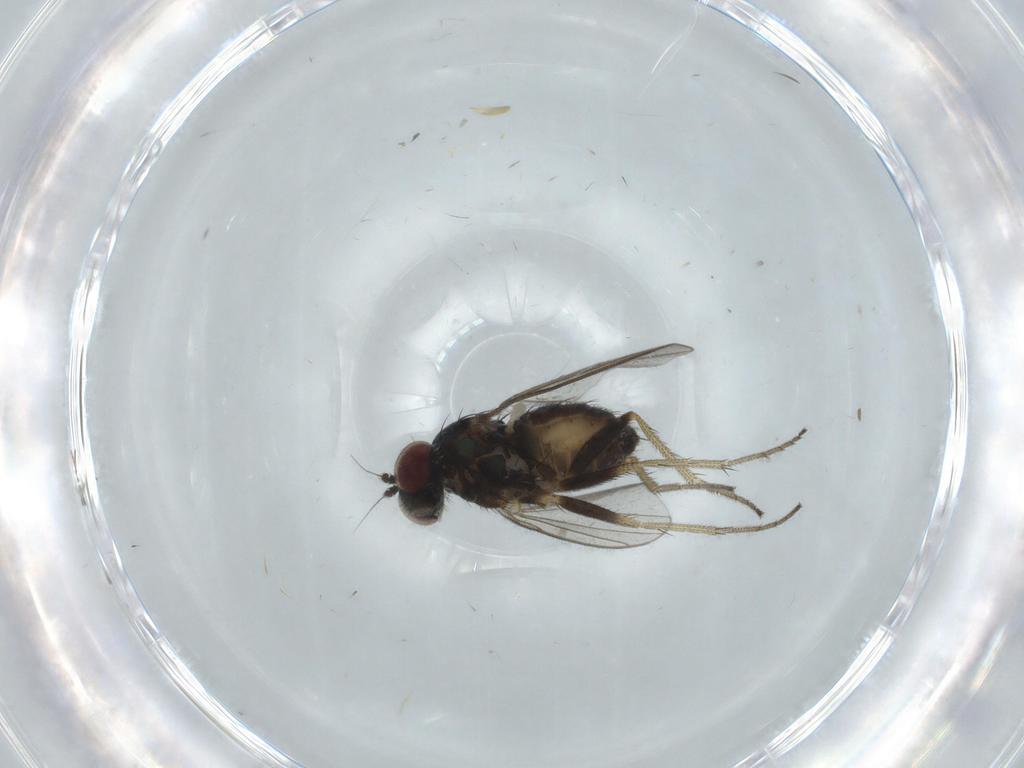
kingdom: Animalia
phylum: Arthropoda
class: Insecta
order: Diptera
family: Dolichopodidae
